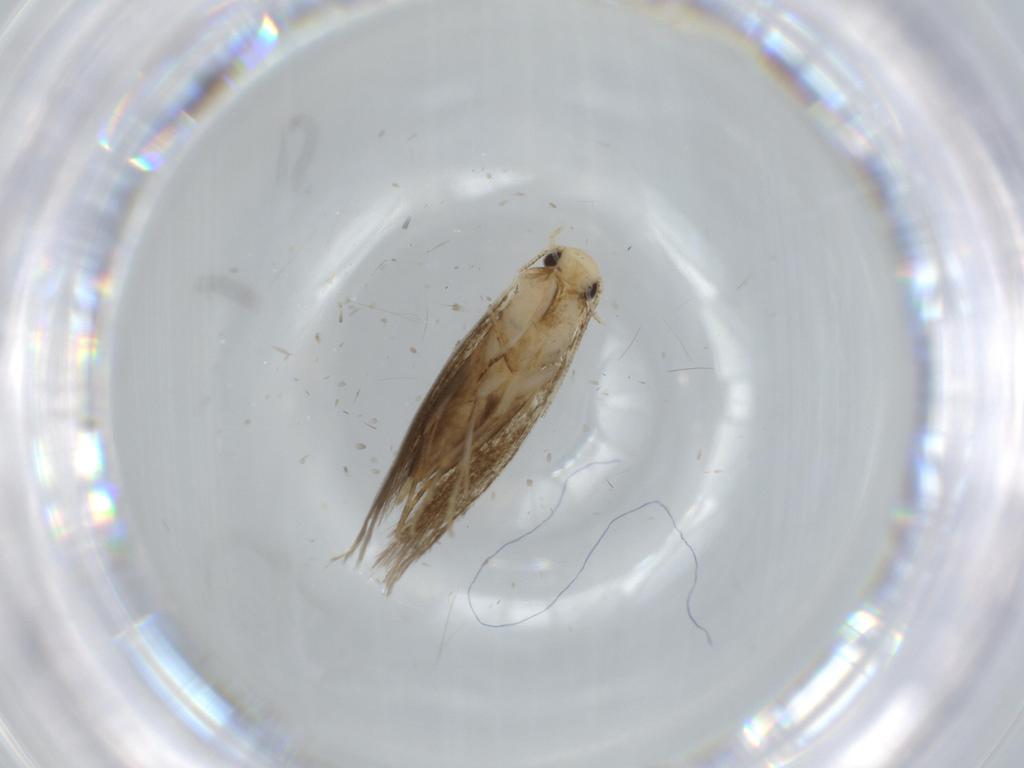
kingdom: Animalia
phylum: Arthropoda
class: Insecta
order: Lepidoptera
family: Tineidae
